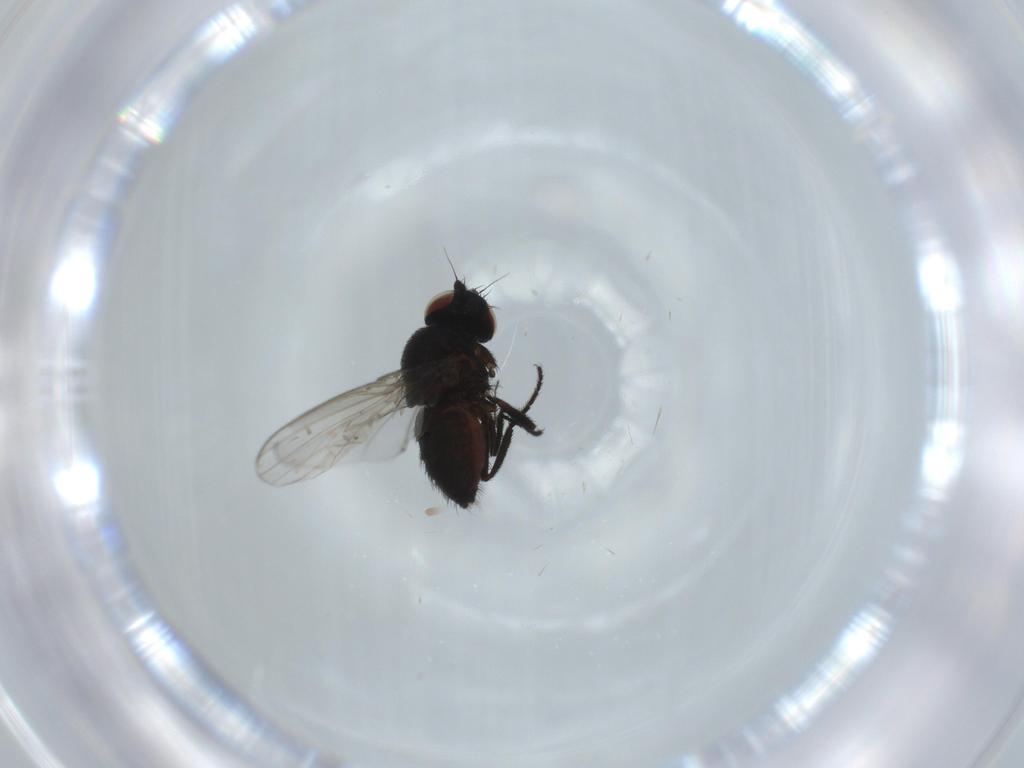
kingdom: Animalia
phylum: Arthropoda
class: Insecta
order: Diptera
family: Milichiidae
